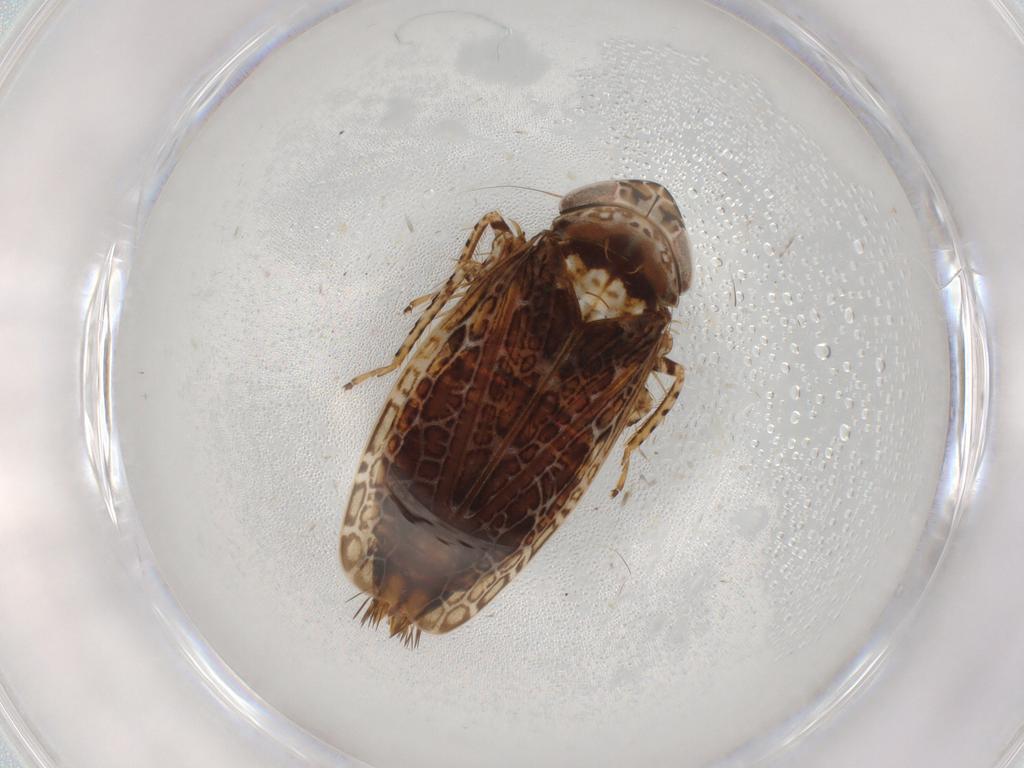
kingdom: Animalia
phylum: Arthropoda
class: Insecta
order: Hemiptera
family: Cicadellidae
